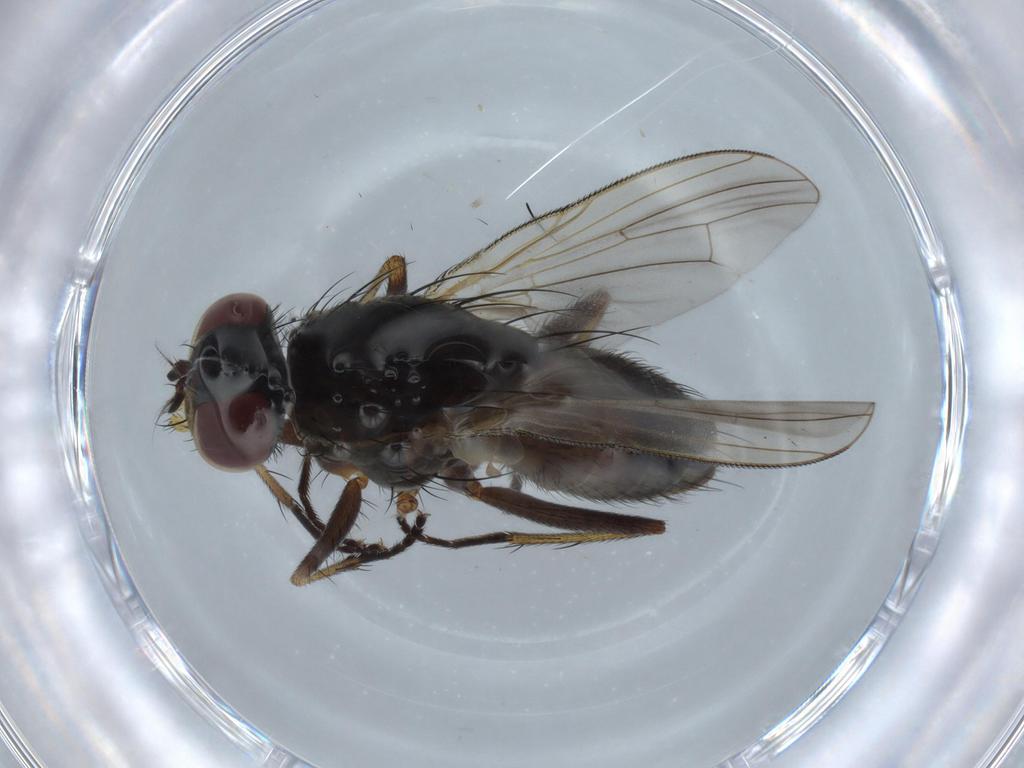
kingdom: Animalia
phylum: Arthropoda
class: Insecta
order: Diptera
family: Muscidae
